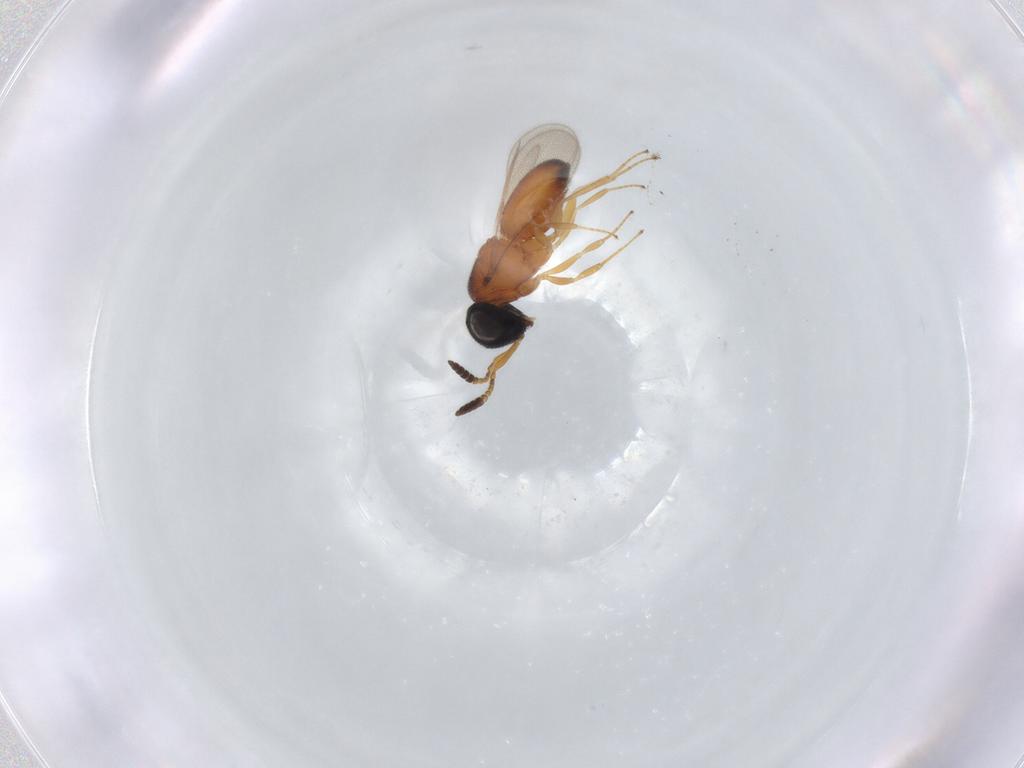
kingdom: Animalia
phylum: Arthropoda
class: Insecta
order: Hymenoptera
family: Scelionidae
